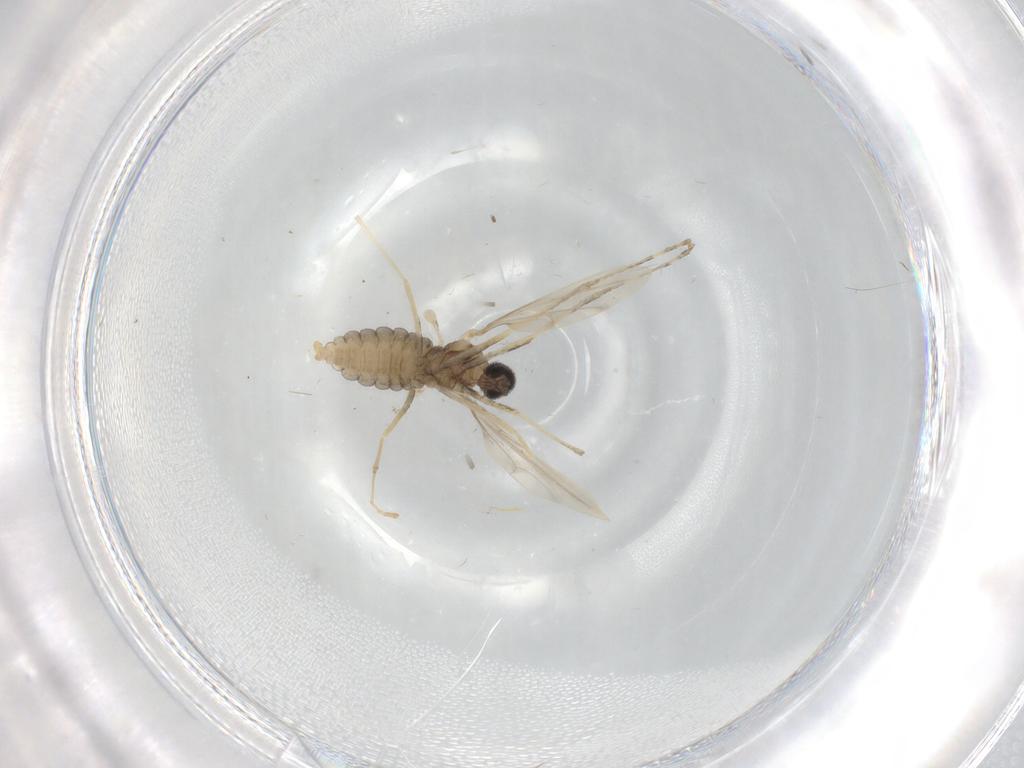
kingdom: Animalia
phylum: Arthropoda
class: Insecta
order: Diptera
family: Cecidomyiidae
